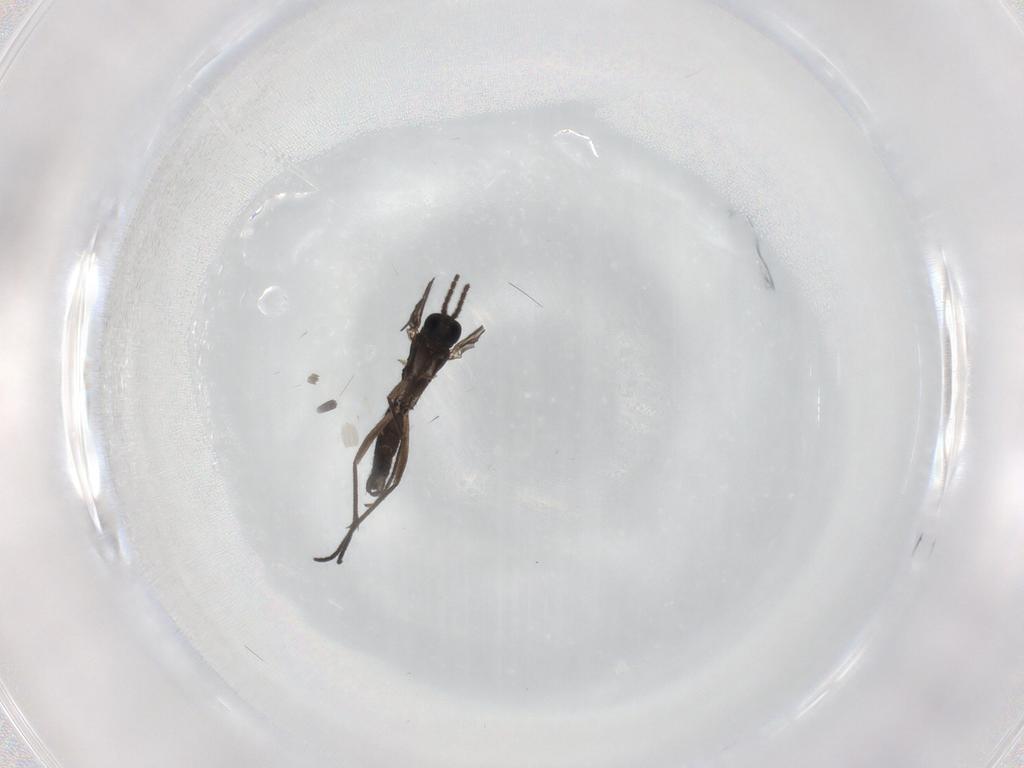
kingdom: Animalia
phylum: Arthropoda
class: Insecta
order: Diptera
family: Sciaridae
